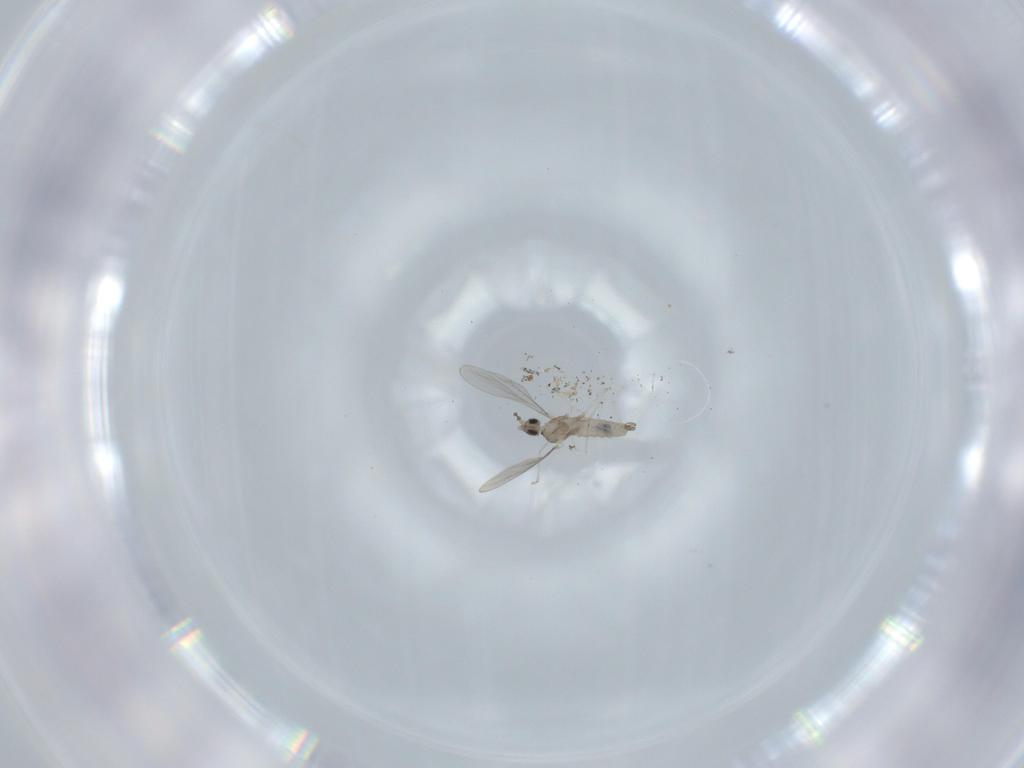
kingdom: Animalia
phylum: Arthropoda
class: Insecta
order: Diptera
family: Cecidomyiidae
